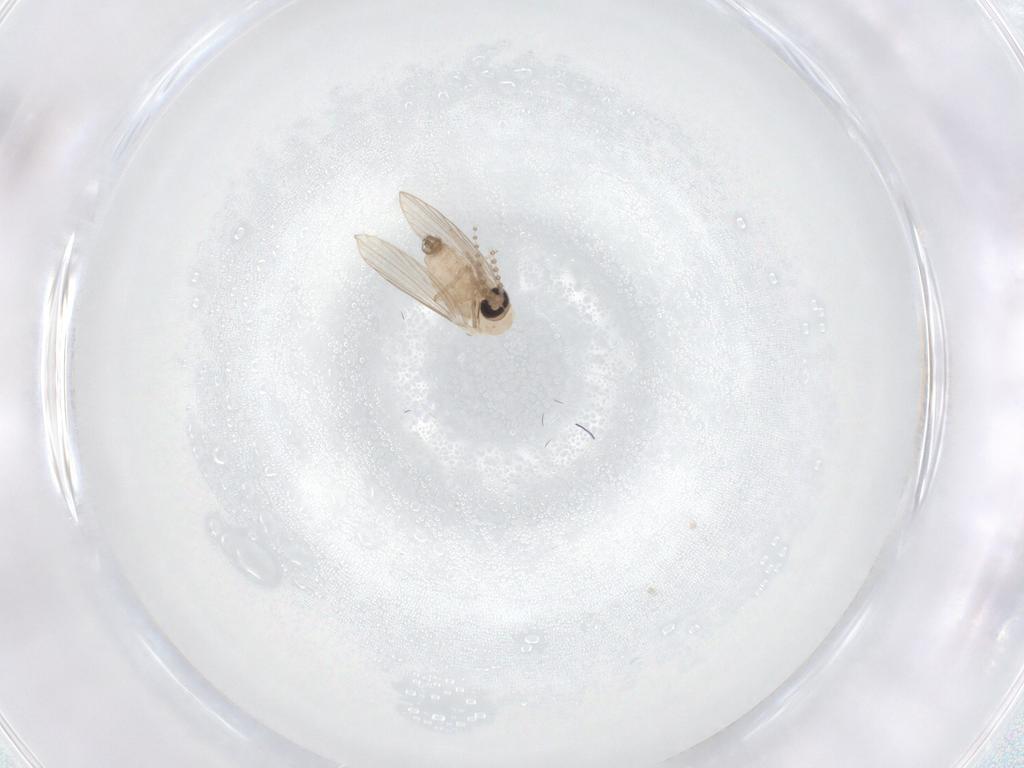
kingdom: Animalia
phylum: Arthropoda
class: Insecta
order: Diptera
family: Psychodidae
